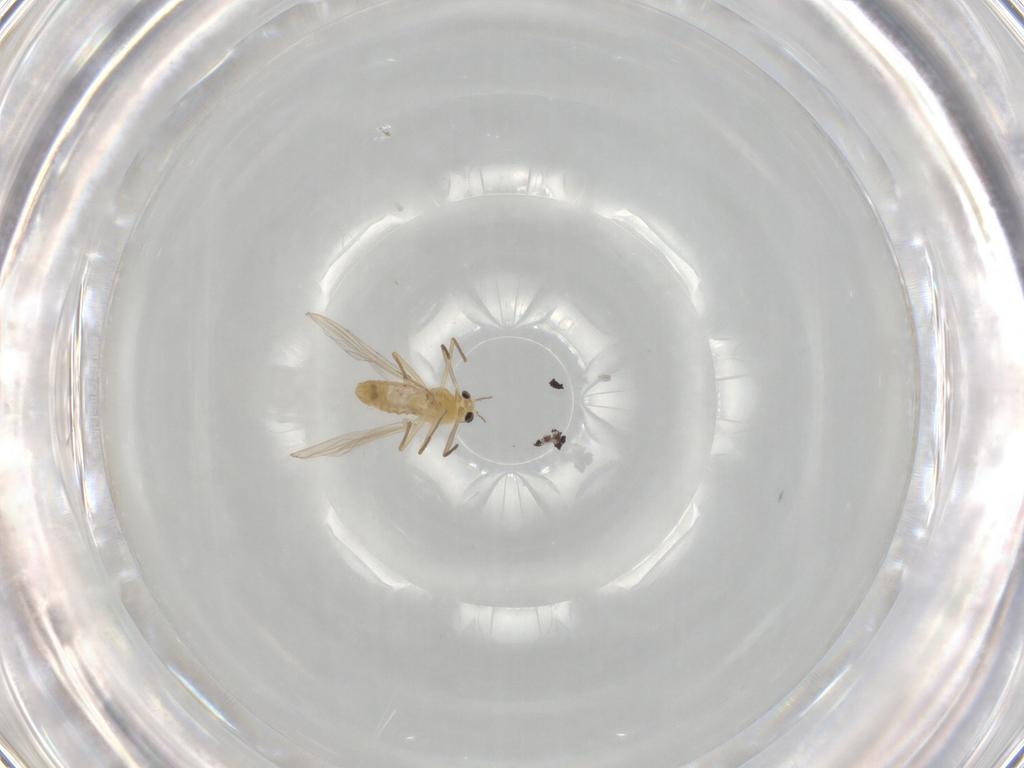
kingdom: Animalia
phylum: Arthropoda
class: Insecta
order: Diptera
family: Chironomidae
